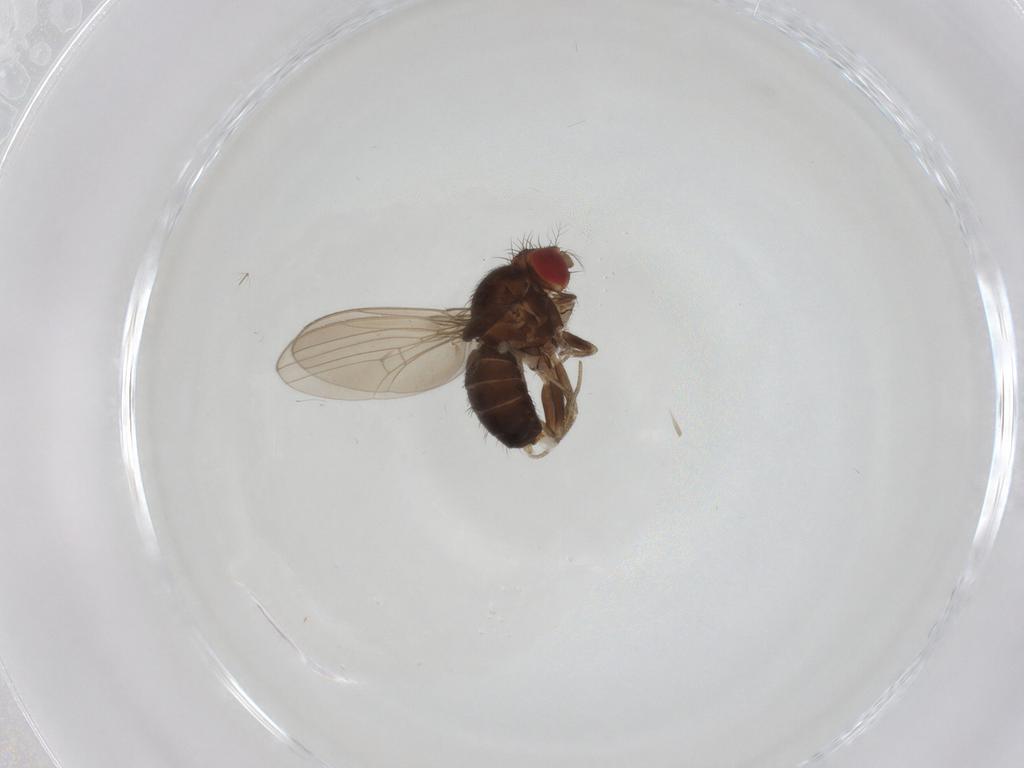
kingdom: Animalia
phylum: Arthropoda
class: Insecta
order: Diptera
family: Drosophilidae
